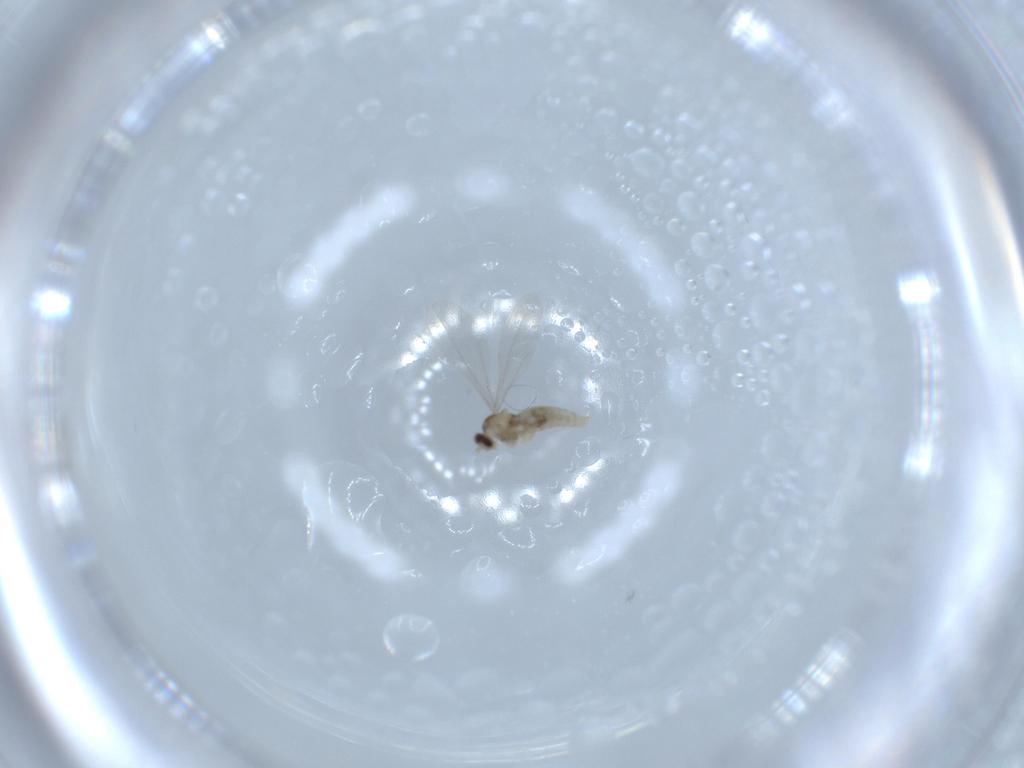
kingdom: Animalia
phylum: Arthropoda
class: Insecta
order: Diptera
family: Cecidomyiidae
